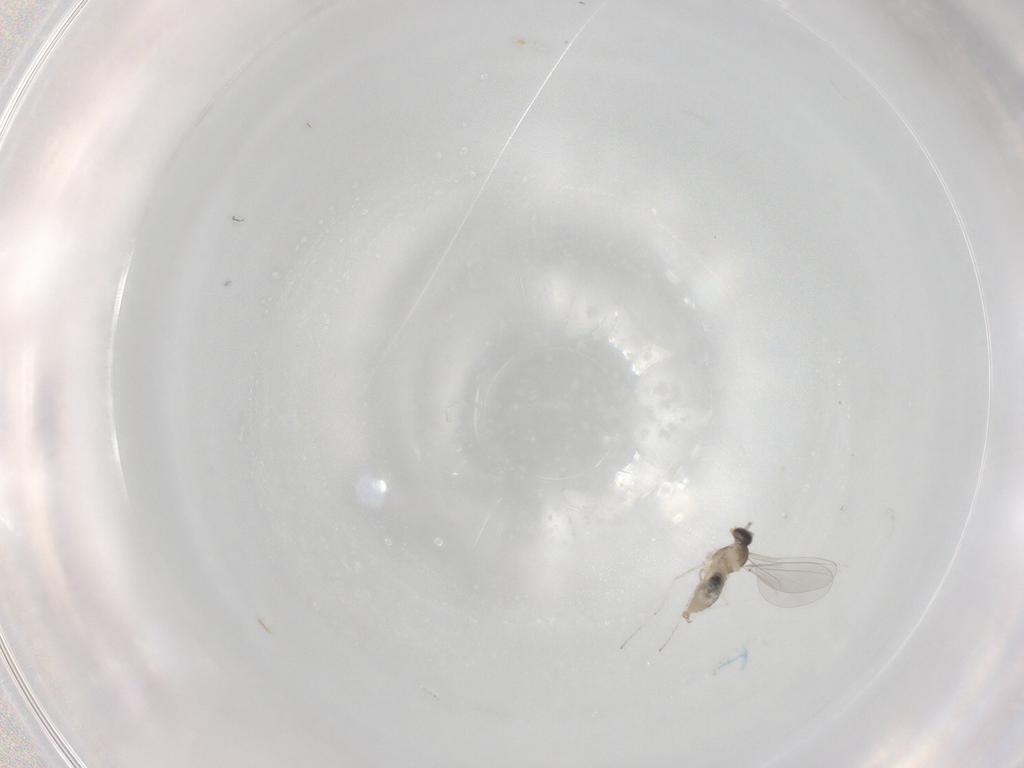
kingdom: Animalia
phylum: Arthropoda
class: Insecta
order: Diptera
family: Cecidomyiidae
